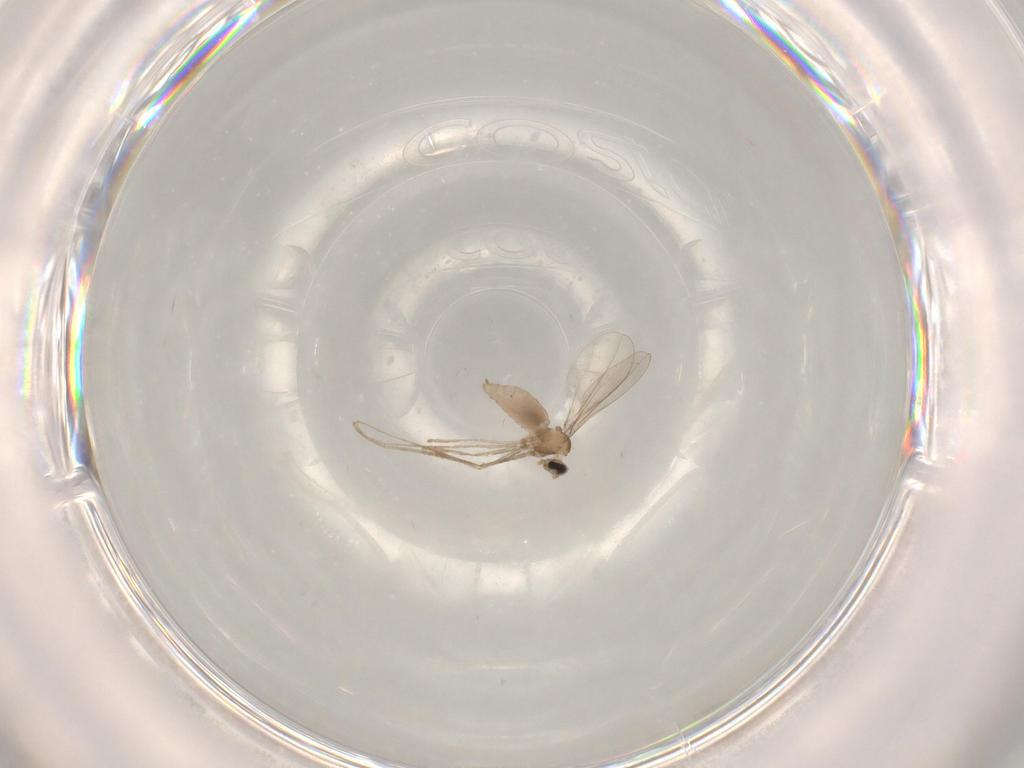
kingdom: Animalia
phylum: Arthropoda
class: Insecta
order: Diptera
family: Cecidomyiidae
